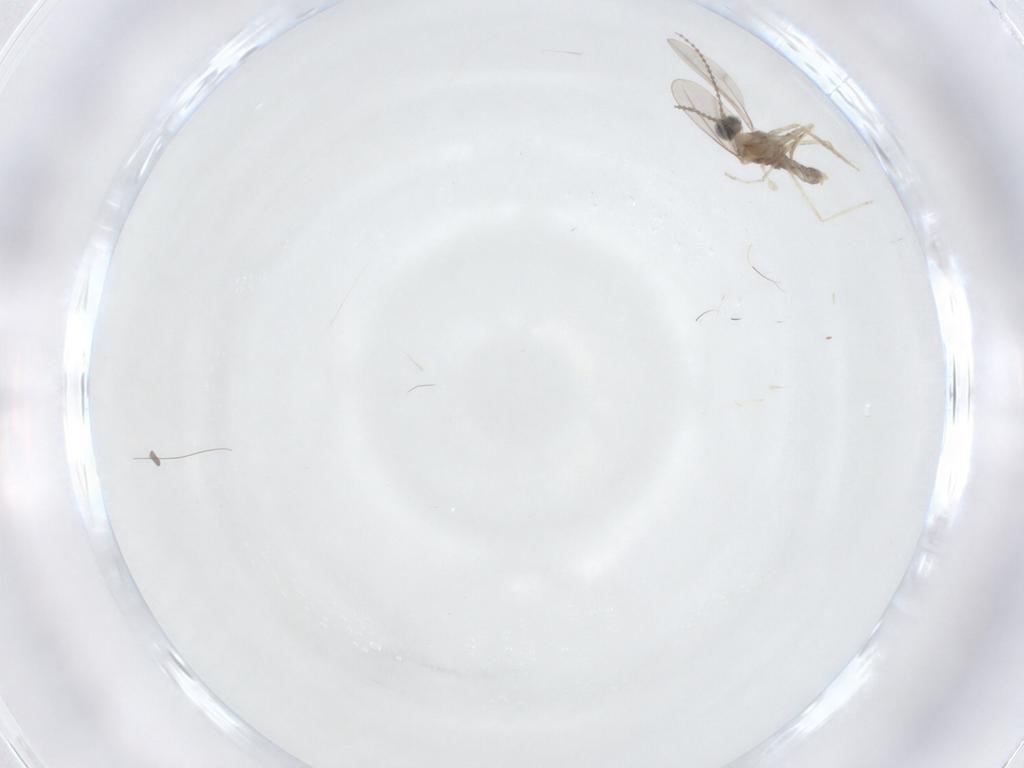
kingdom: Animalia
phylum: Arthropoda
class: Insecta
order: Diptera
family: Cecidomyiidae
